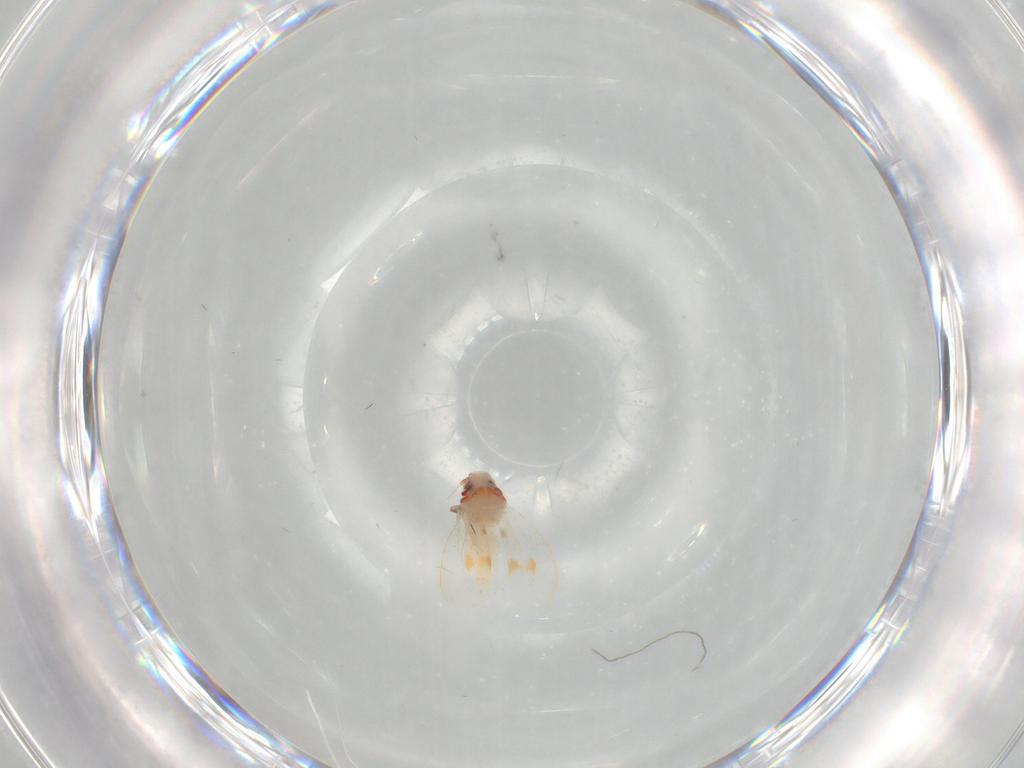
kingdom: Animalia
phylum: Arthropoda
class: Insecta
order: Hemiptera
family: Aleyrodidae
